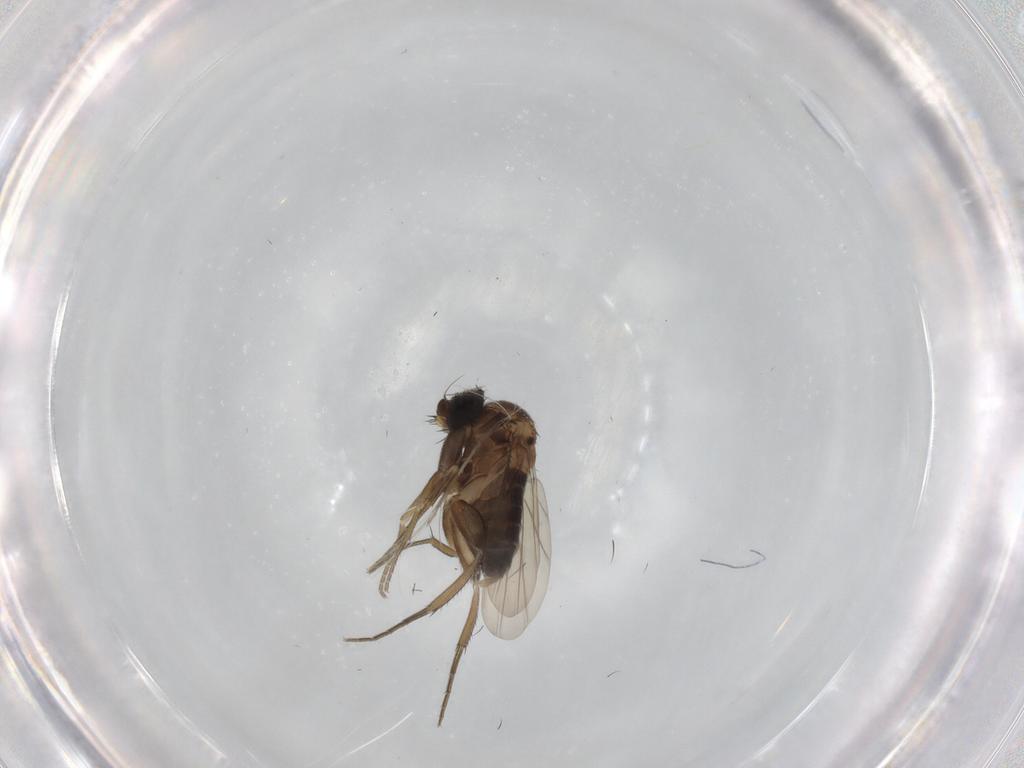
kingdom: Animalia
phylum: Arthropoda
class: Insecta
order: Diptera
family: Phoridae
